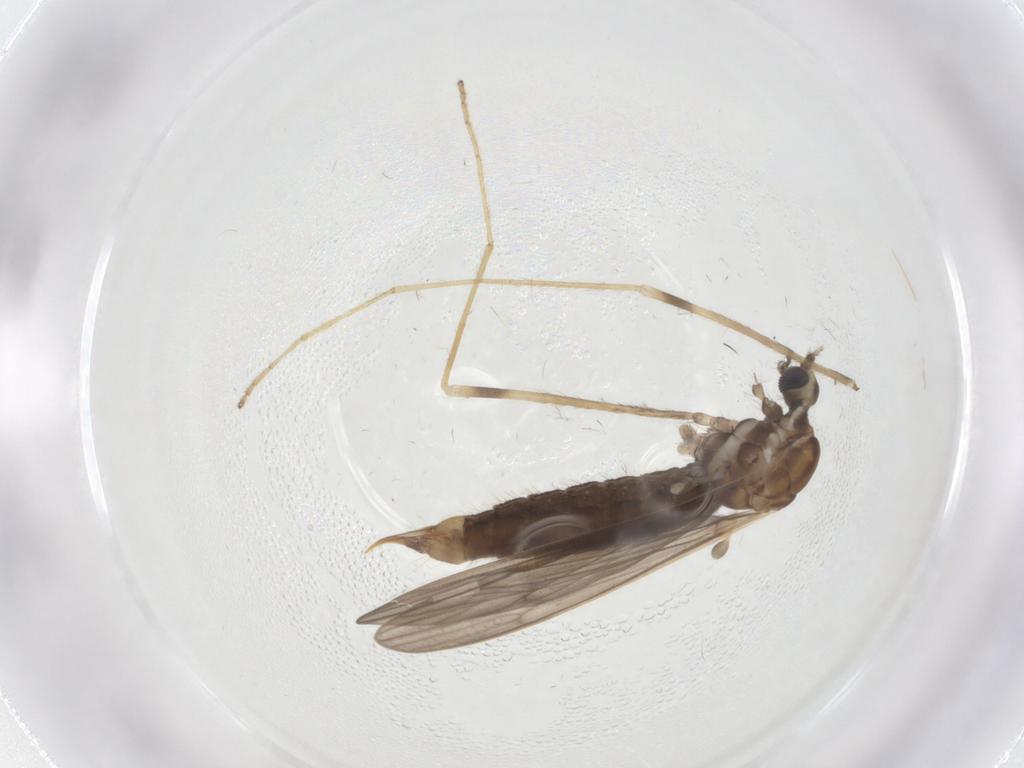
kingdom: Animalia
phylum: Arthropoda
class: Insecta
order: Diptera
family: Limoniidae
